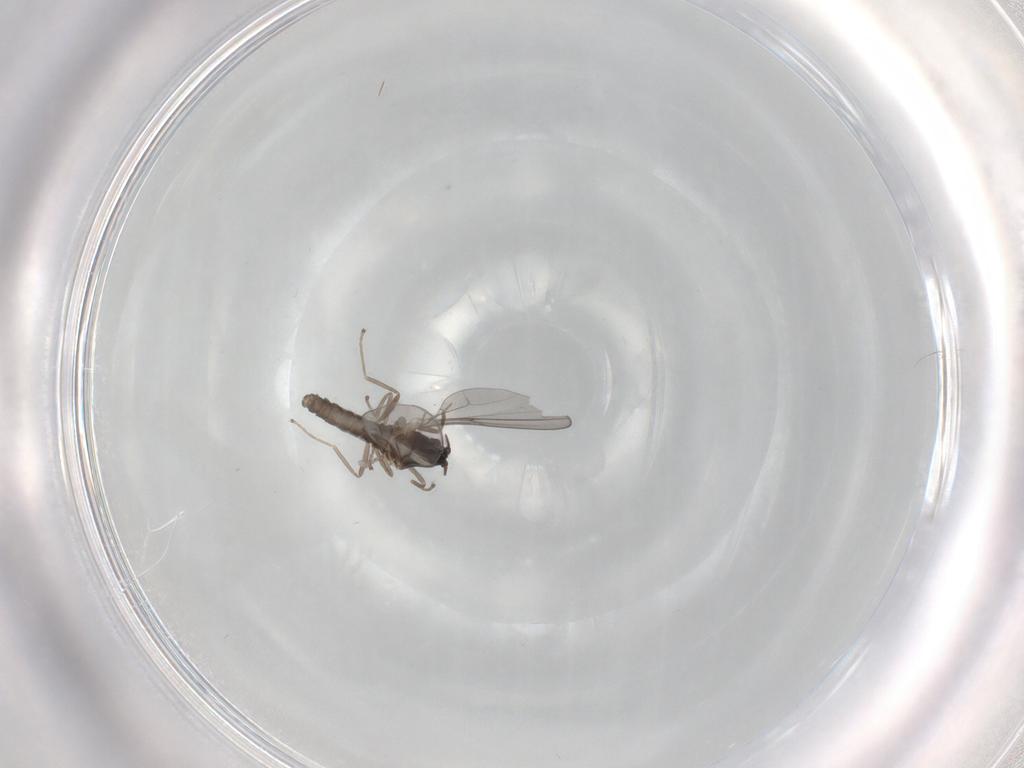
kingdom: Animalia
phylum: Arthropoda
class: Insecta
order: Diptera
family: Cecidomyiidae
